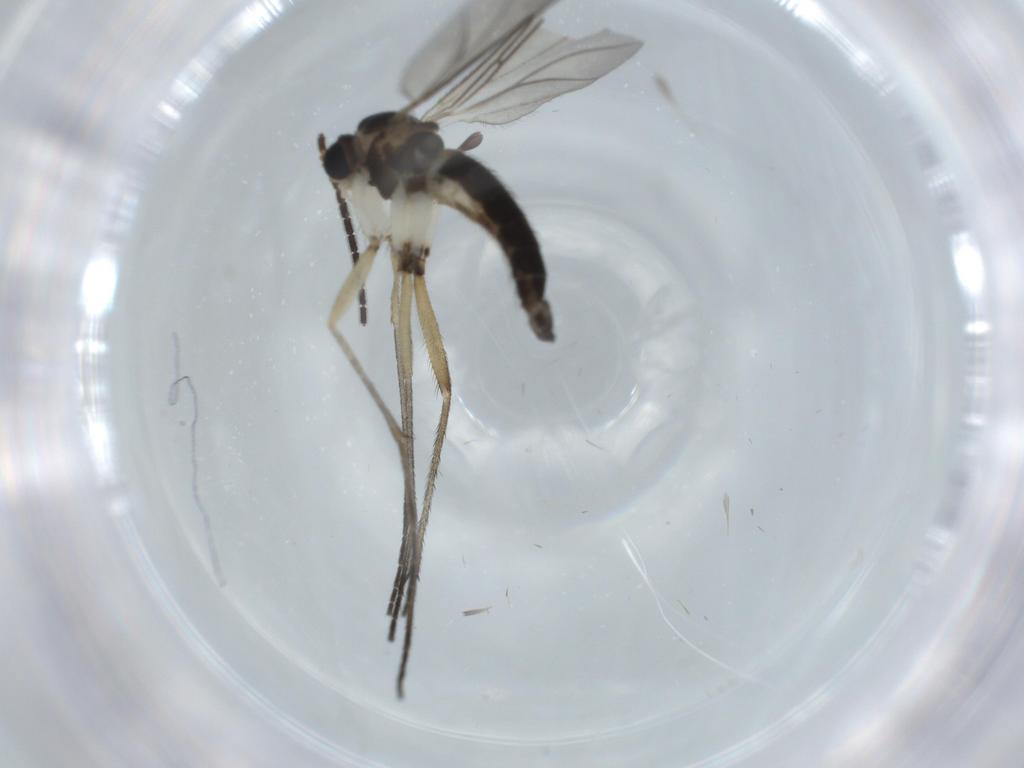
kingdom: Animalia
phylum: Arthropoda
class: Insecta
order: Diptera
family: Sciaridae
